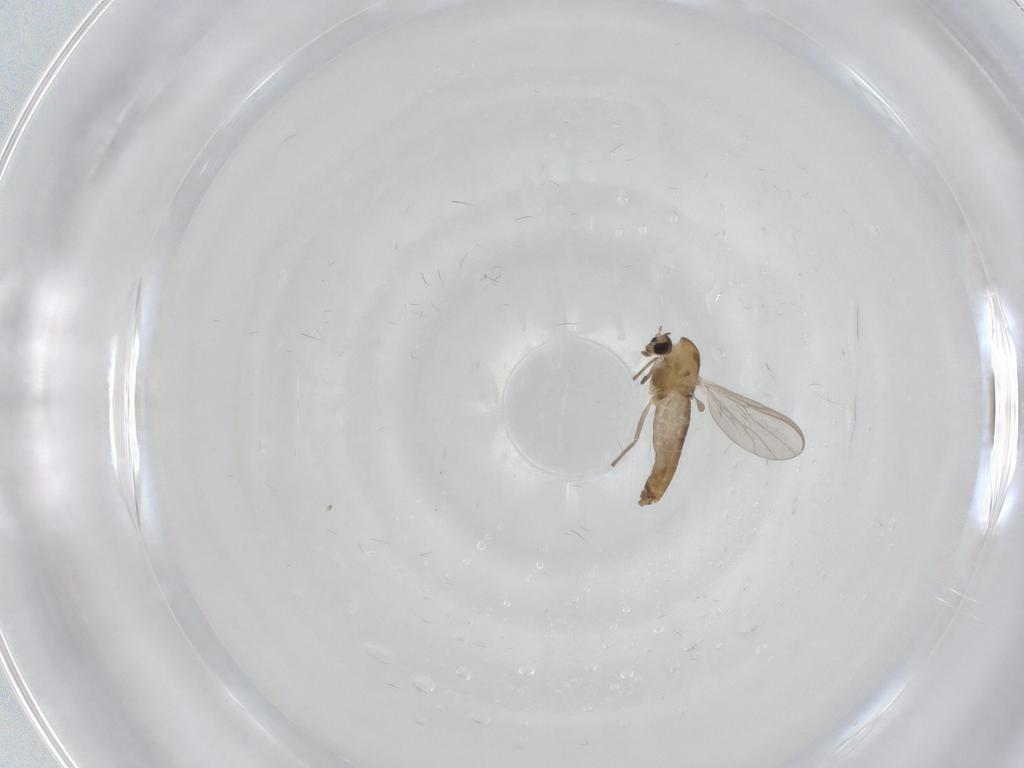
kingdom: Animalia
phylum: Arthropoda
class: Insecta
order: Diptera
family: Chironomidae
